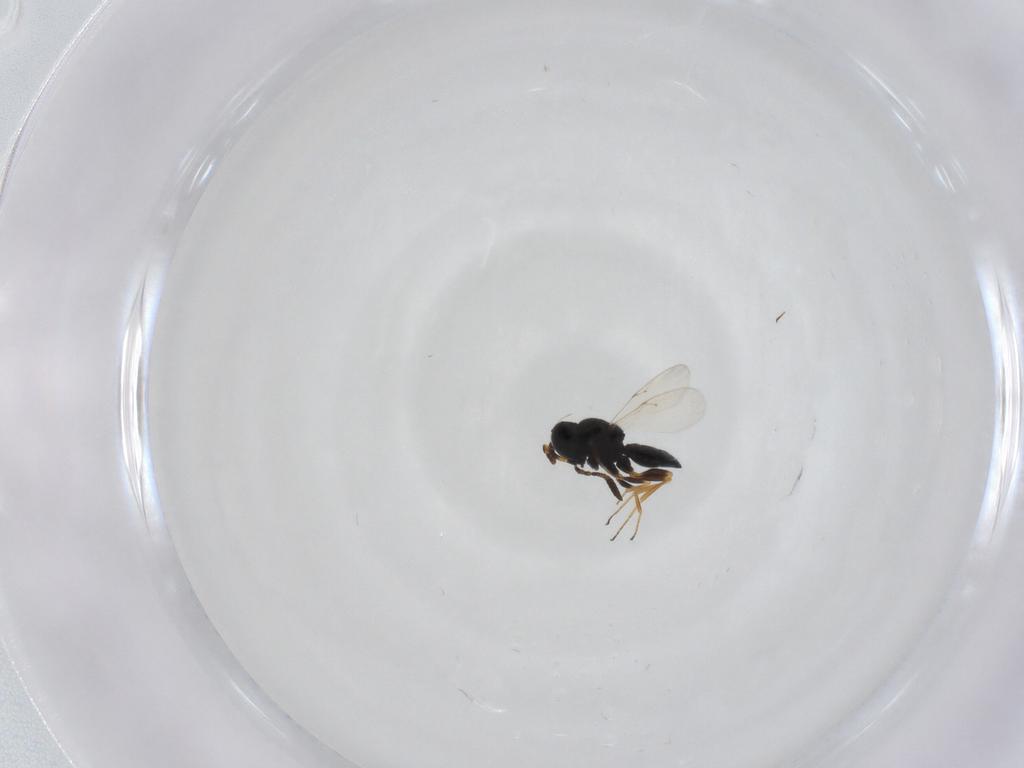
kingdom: Animalia
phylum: Arthropoda
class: Insecta
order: Hymenoptera
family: Scelionidae
